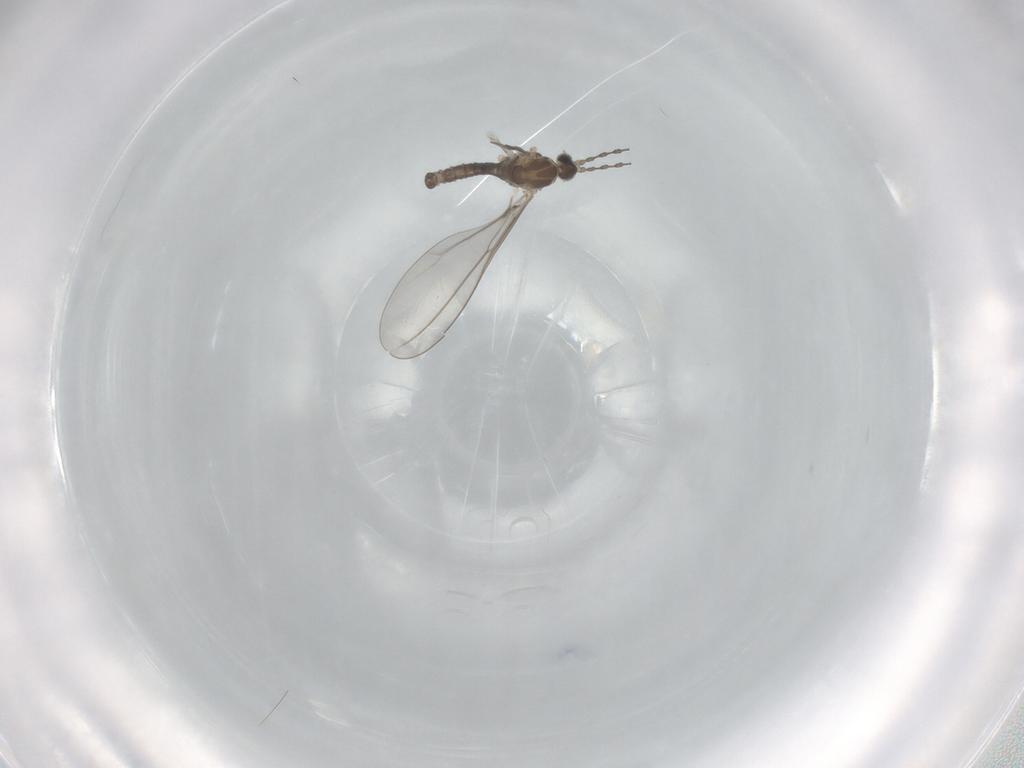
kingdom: Animalia
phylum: Arthropoda
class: Insecta
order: Diptera
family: Cecidomyiidae
